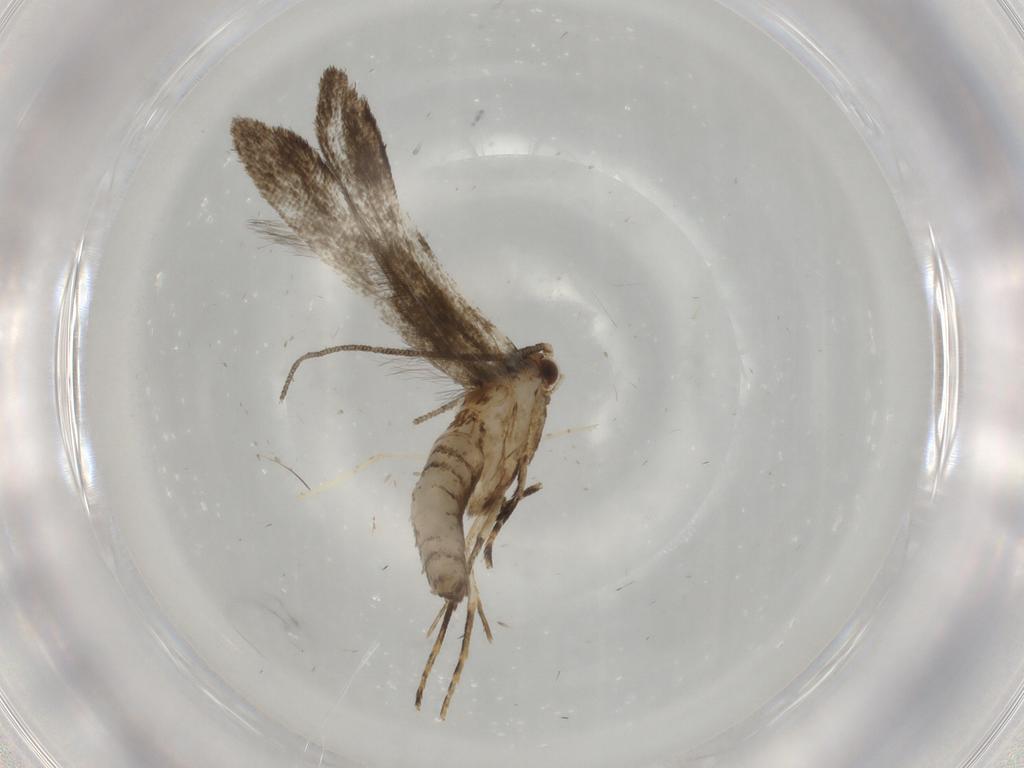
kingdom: Animalia
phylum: Arthropoda
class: Insecta
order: Lepidoptera
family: Tineidae
